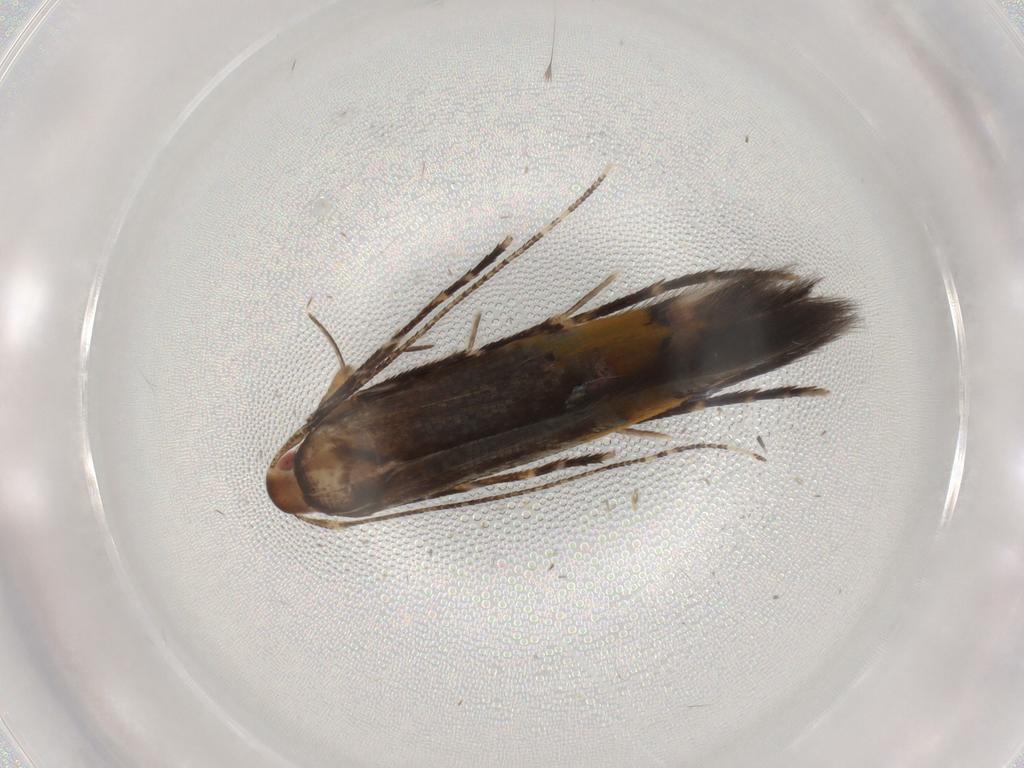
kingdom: Animalia
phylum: Arthropoda
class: Insecta
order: Lepidoptera
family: Cosmopterigidae
